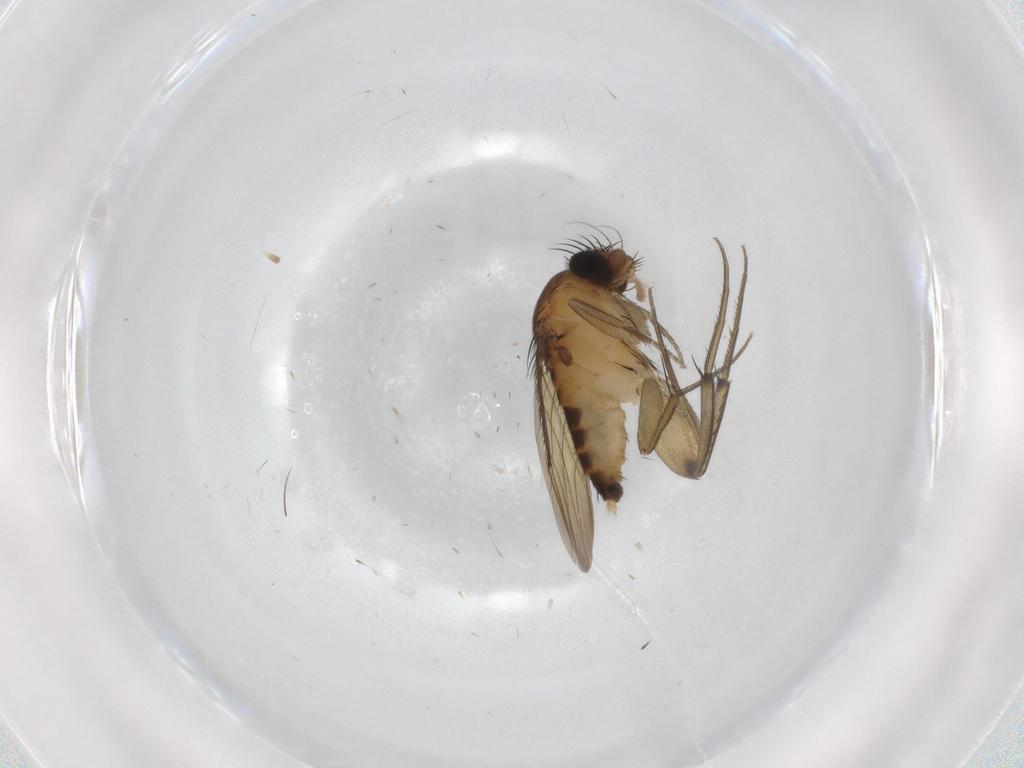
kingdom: Animalia
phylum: Arthropoda
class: Insecta
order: Diptera
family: Phoridae
